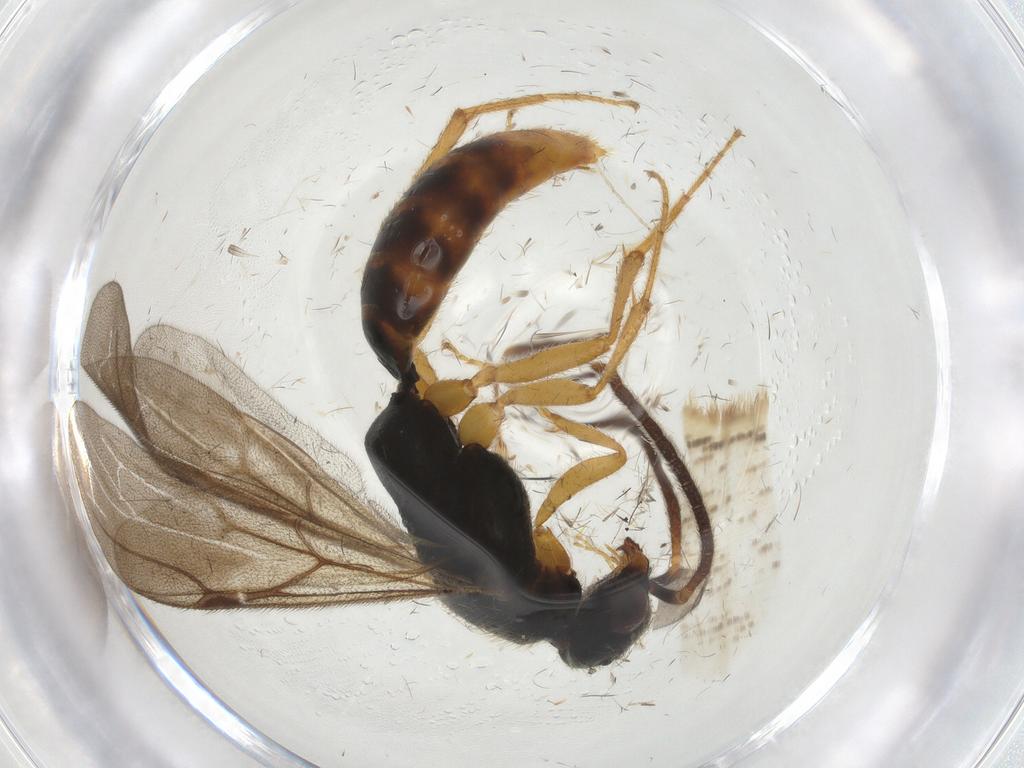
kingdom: Animalia
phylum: Arthropoda
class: Insecta
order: Hymenoptera
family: Bethylidae
